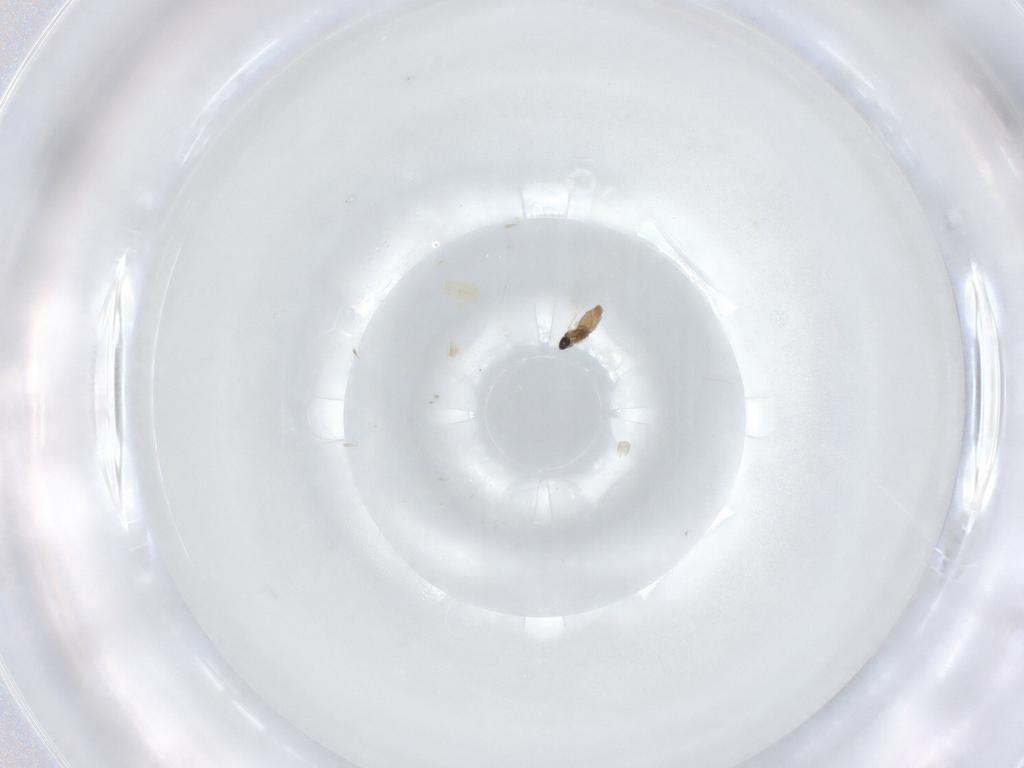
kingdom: Animalia
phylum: Arthropoda
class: Insecta
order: Diptera
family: Cecidomyiidae
